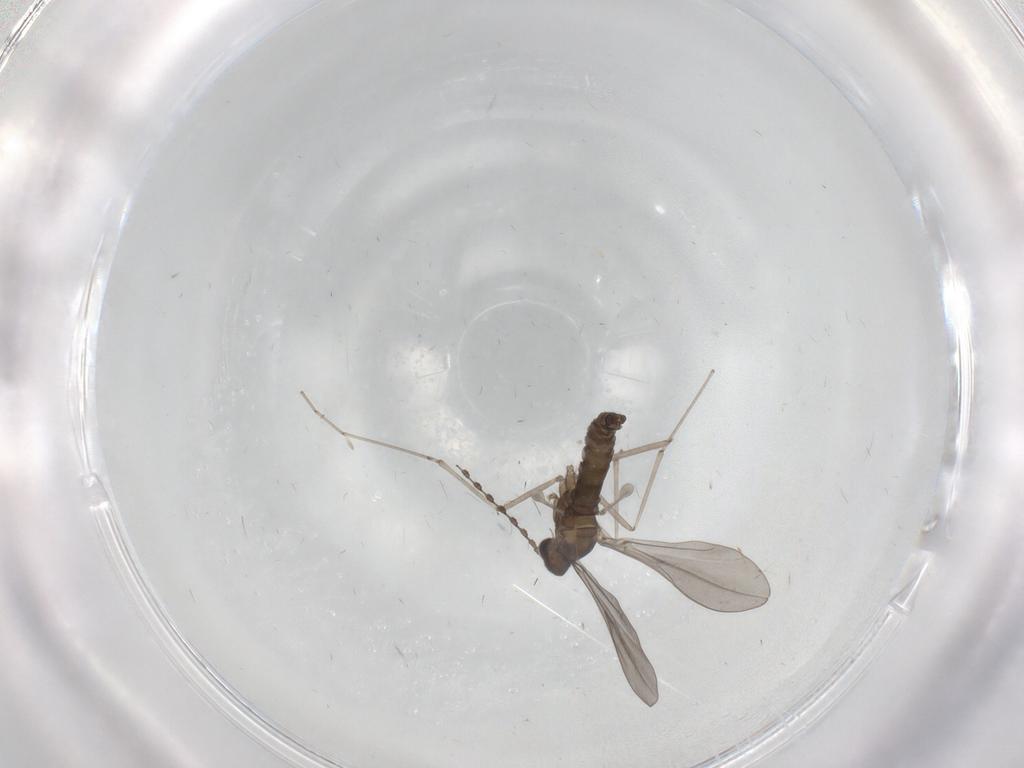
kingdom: Animalia
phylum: Arthropoda
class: Insecta
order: Diptera
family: Cecidomyiidae
